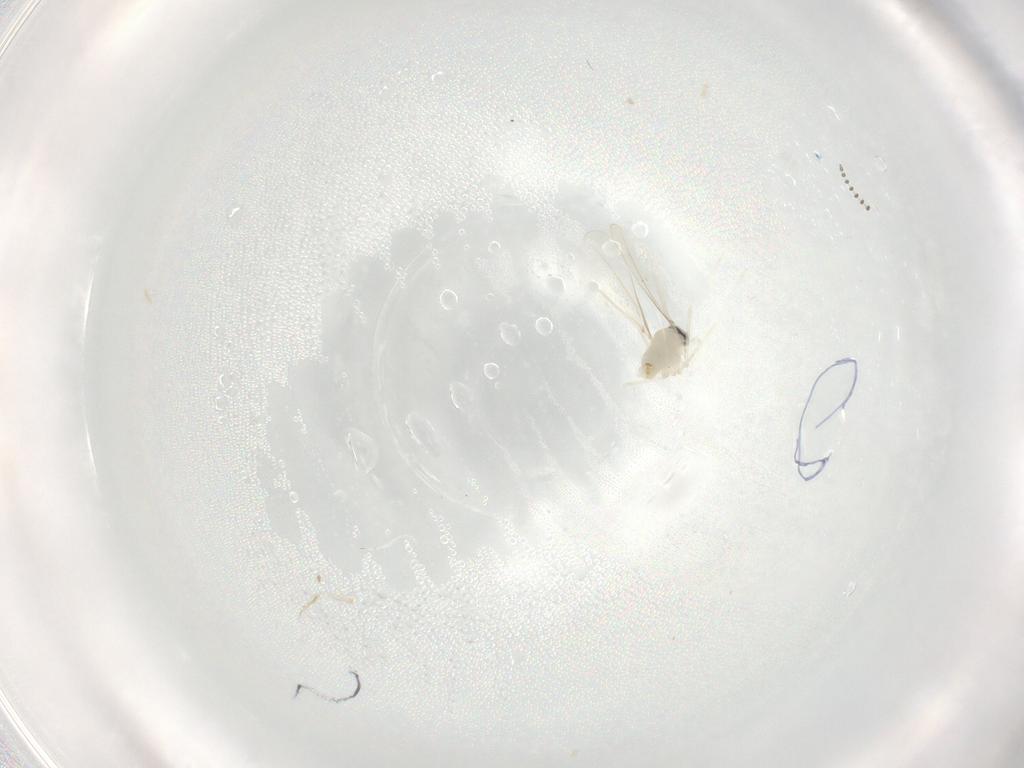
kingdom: Animalia
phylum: Arthropoda
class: Insecta
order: Diptera
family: Cecidomyiidae
